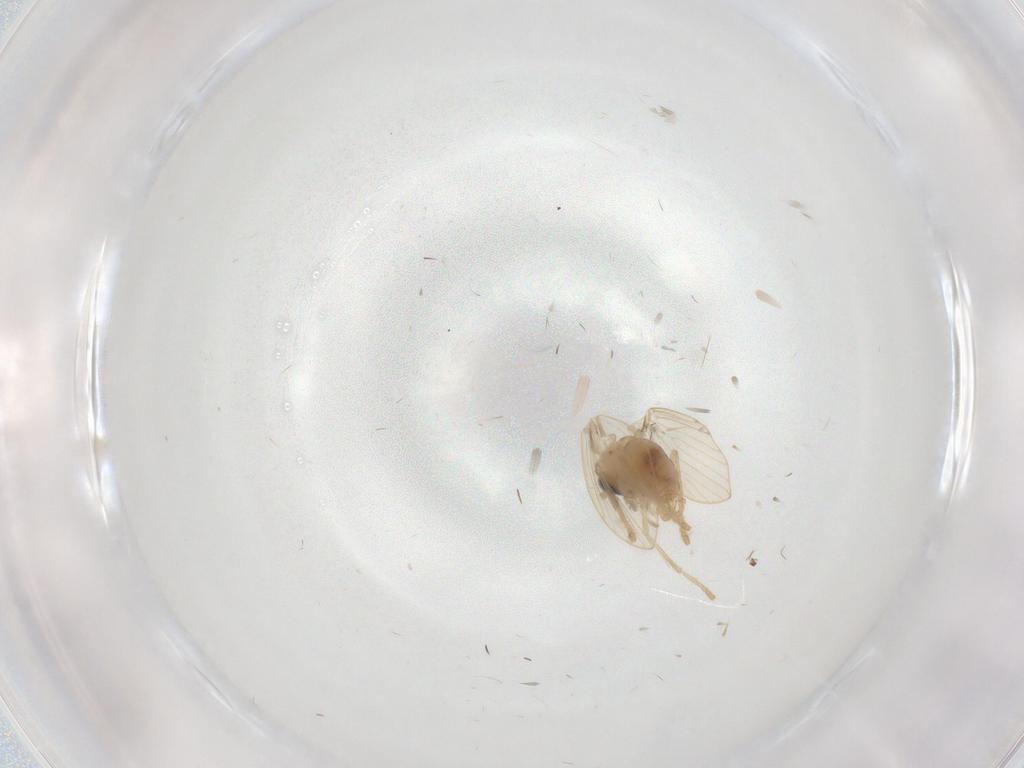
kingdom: Animalia
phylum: Arthropoda
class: Insecta
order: Diptera
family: Psychodidae
